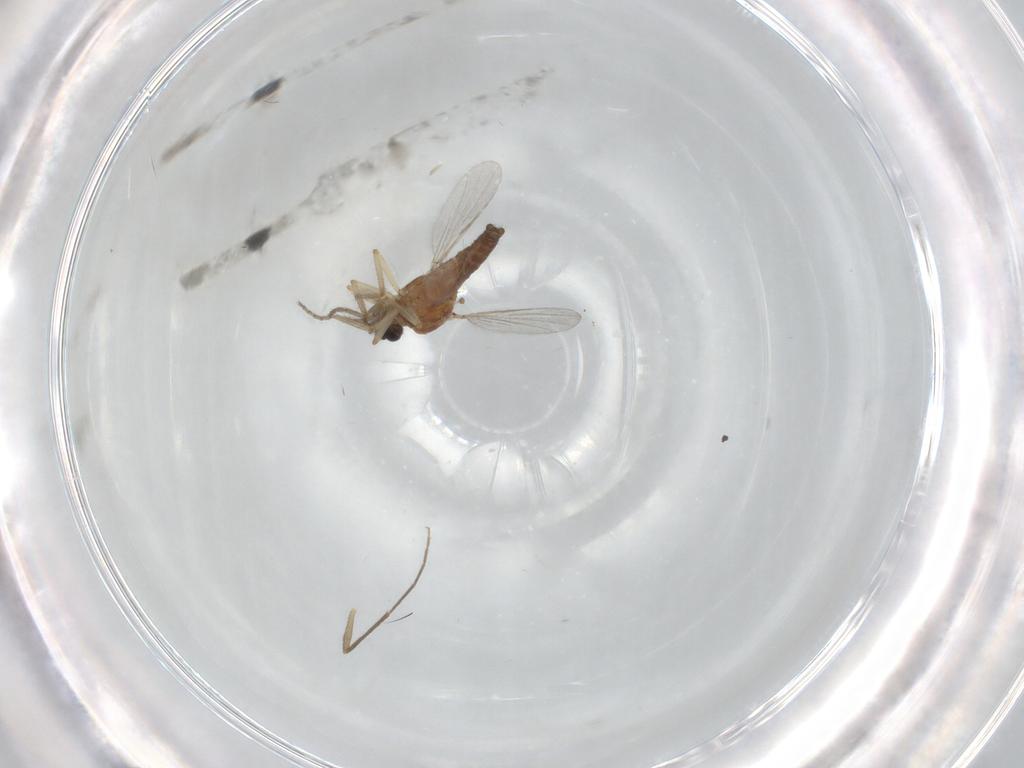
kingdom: Animalia
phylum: Arthropoda
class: Insecta
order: Diptera
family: Ceratopogonidae
